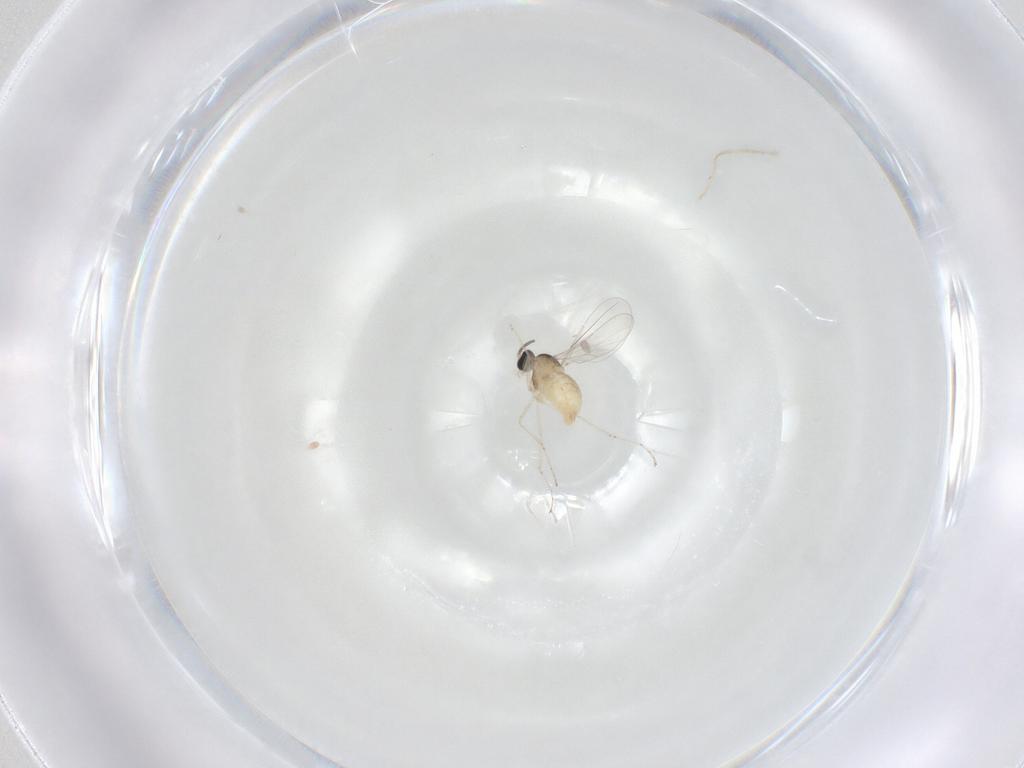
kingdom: Animalia
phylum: Arthropoda
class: Insecta
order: Diptera
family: Cecidomyiidae
